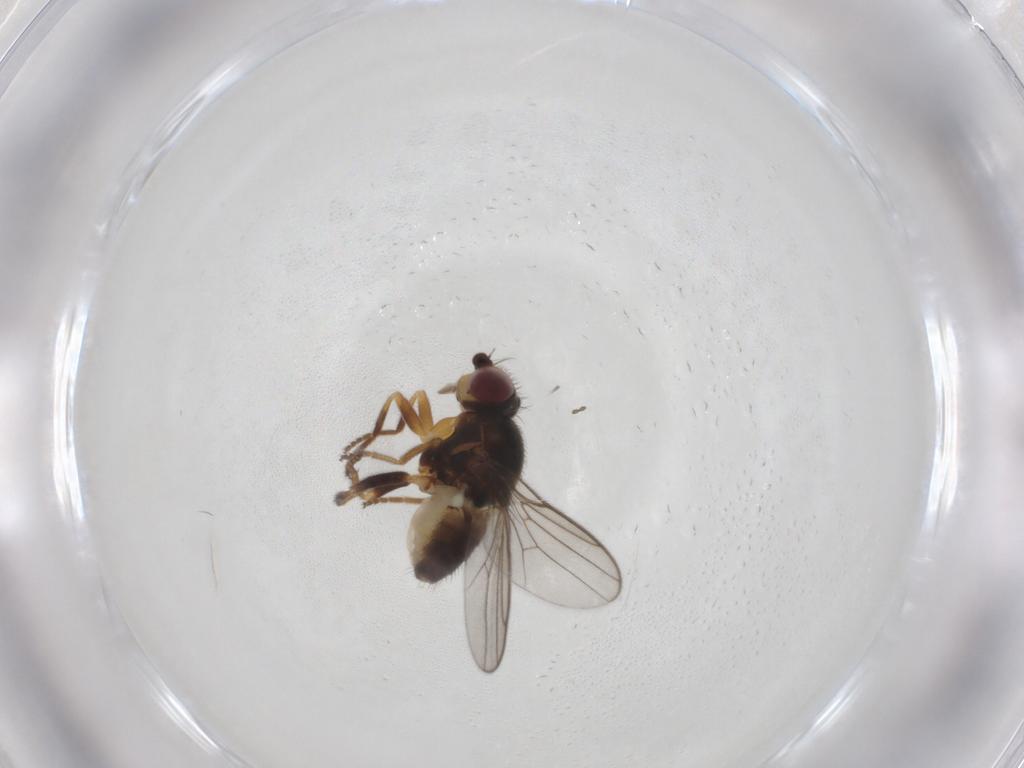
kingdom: Animalia
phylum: Arthropoda
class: Insecta
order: Diptera
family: Chloropidae
